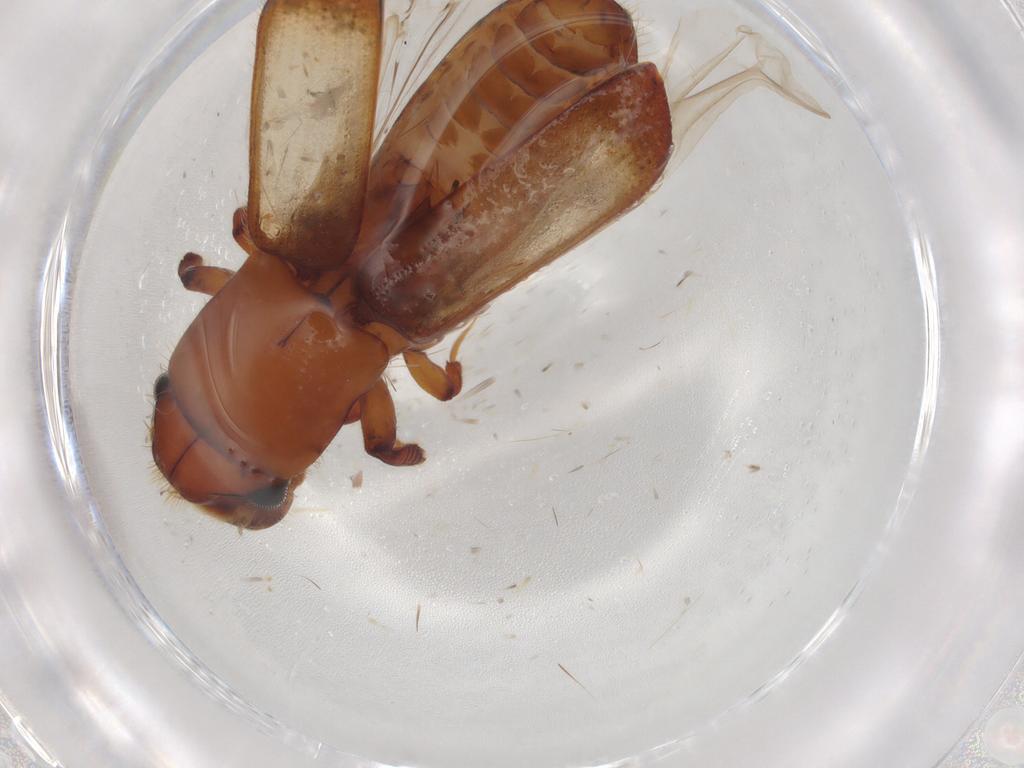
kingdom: Animalia
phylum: Arthropoda
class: Insecta
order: Coleoptera
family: Curculionidae
